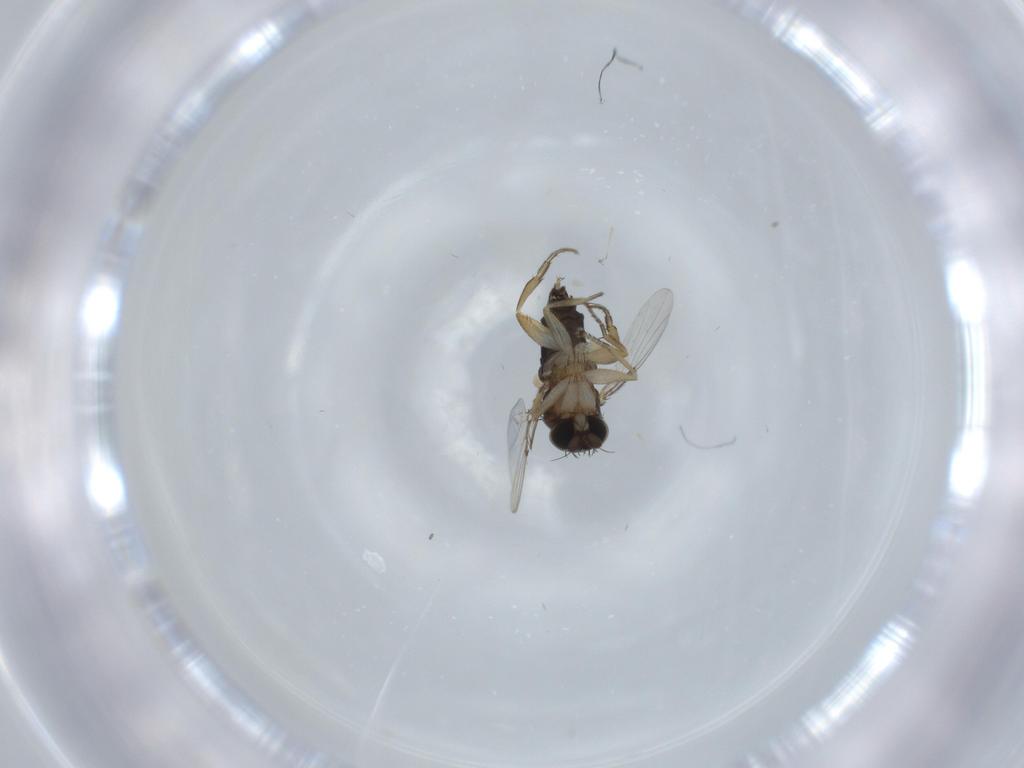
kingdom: Animalia
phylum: Arthropoda
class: Insecta
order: Diptera
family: Phoridae
